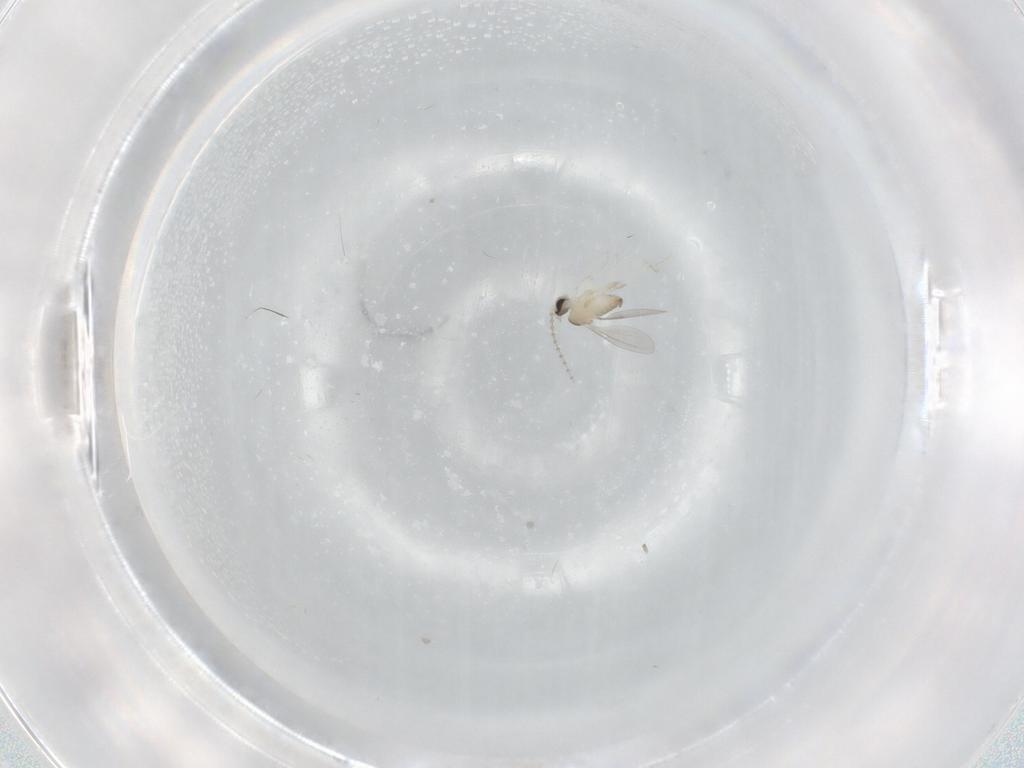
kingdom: Animalia
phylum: Arthropoda
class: Insecta
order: Diptera
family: Cecidomyiidae
